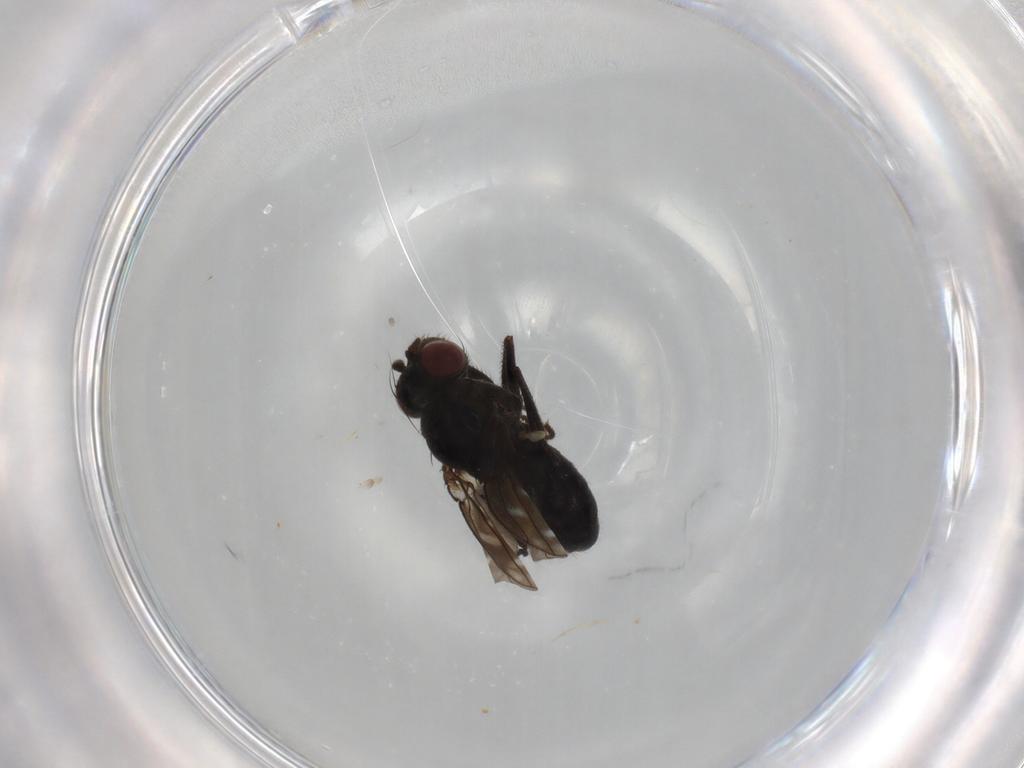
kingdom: Animalia
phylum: Arthropoda
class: Insecta
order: Diptera
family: Ephydridae
